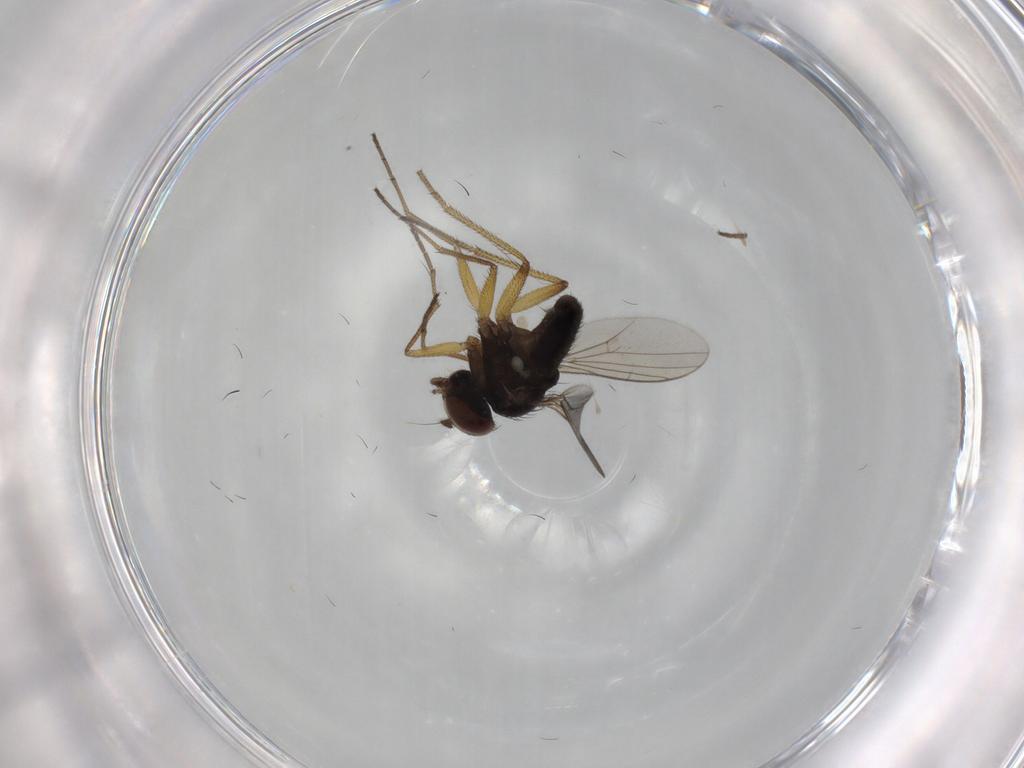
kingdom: Animalia
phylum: Arthropoda
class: Insecta
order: Diptera
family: Dolichopodidae
